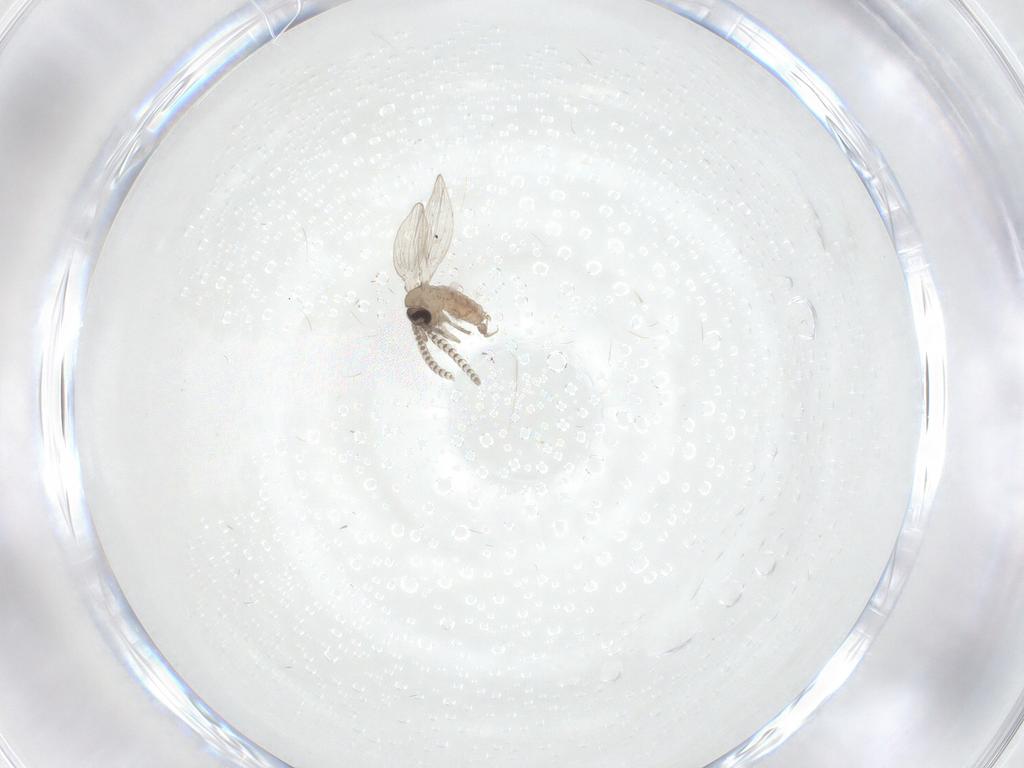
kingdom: Animalia
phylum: Arthropoda
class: Insecta
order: Diptera
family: Psychodidae
